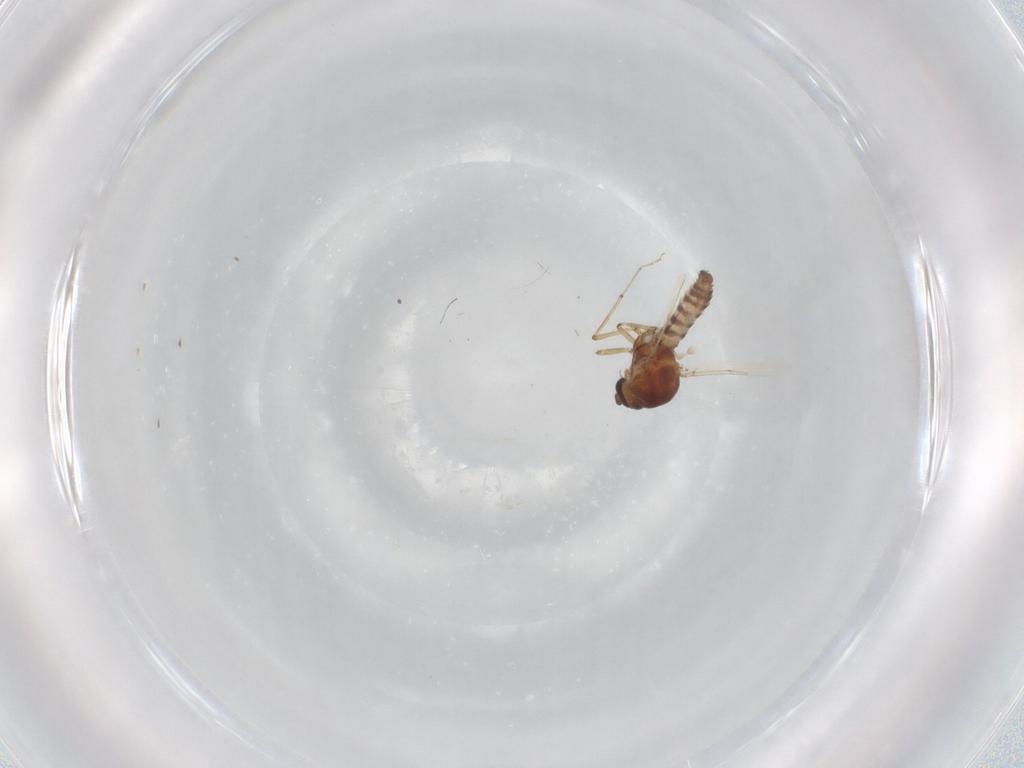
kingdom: Animalia
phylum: Arthropoda
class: Insecta
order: Diptera
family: Ceratopogonidae
